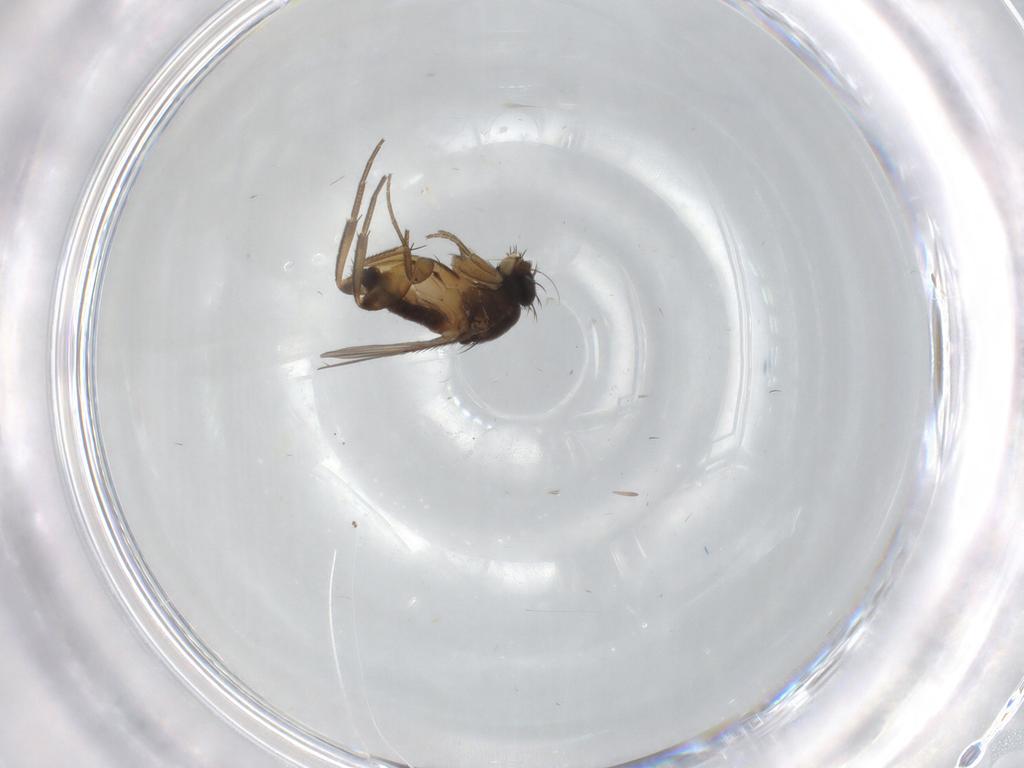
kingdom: Animalia
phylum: Arthropoda
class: Insecta
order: Diptera
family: Phoridae
